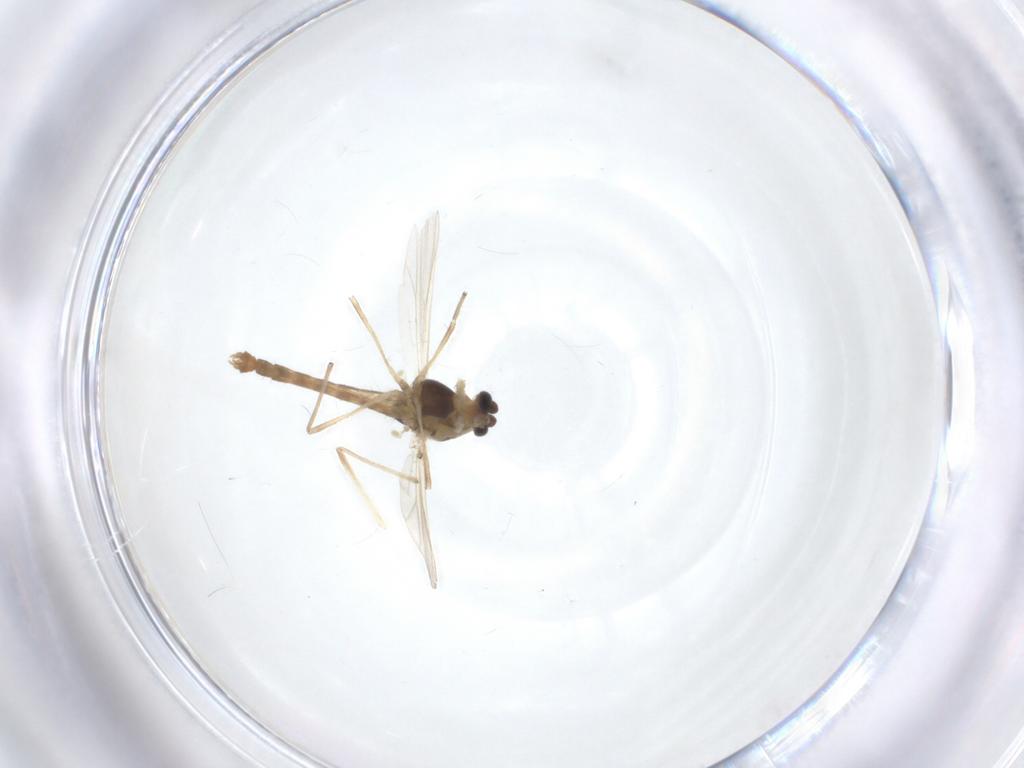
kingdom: Animalia
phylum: Arthropoda
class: Insecta
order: Diptera
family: Chironomidae
